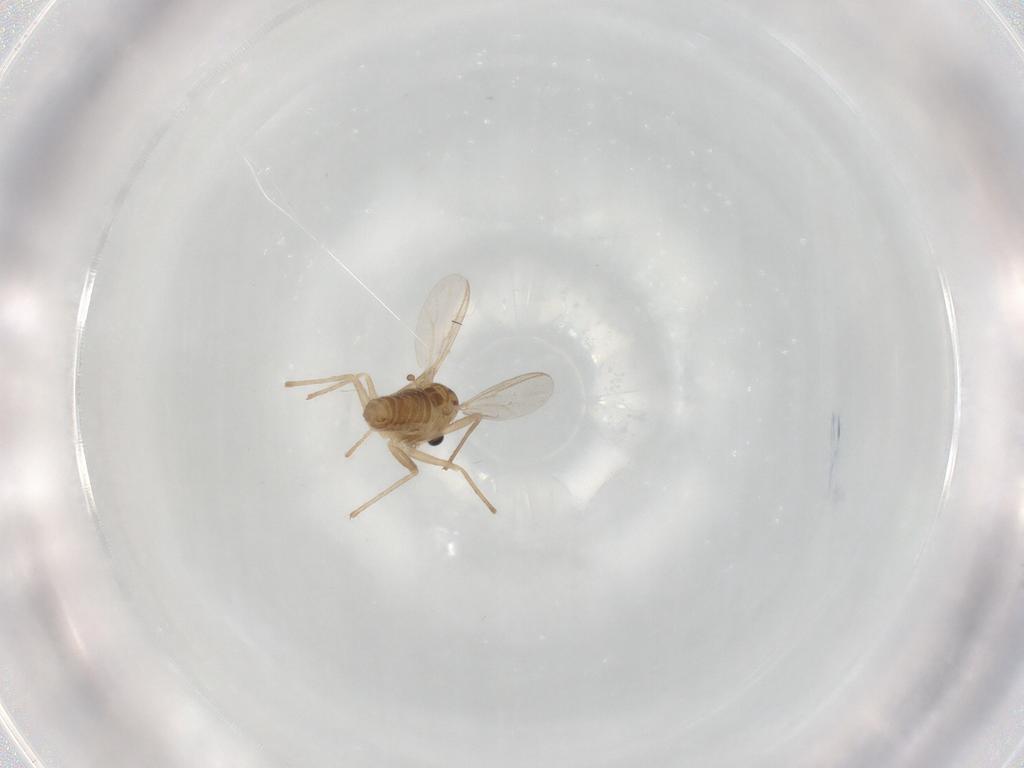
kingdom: Animalia
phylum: Arthropoda
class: Insecta
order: Diptera
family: Chironomidae
